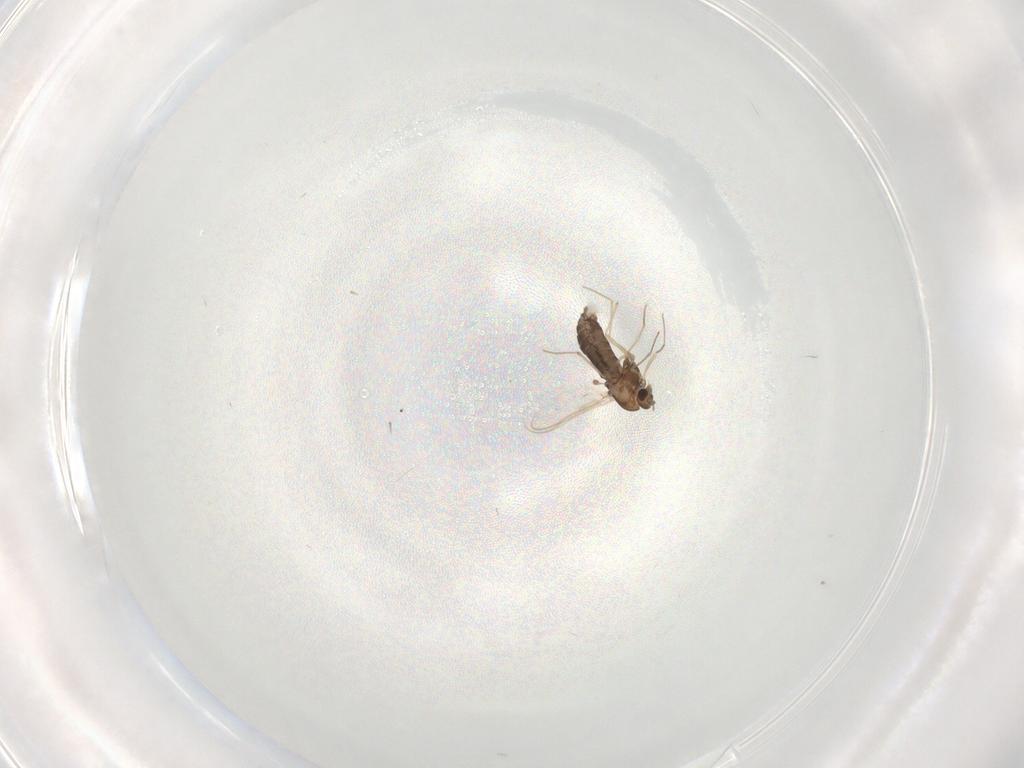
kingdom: Animalia
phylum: Arthropoda
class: Insecta
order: Diptera
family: Chironomidae
